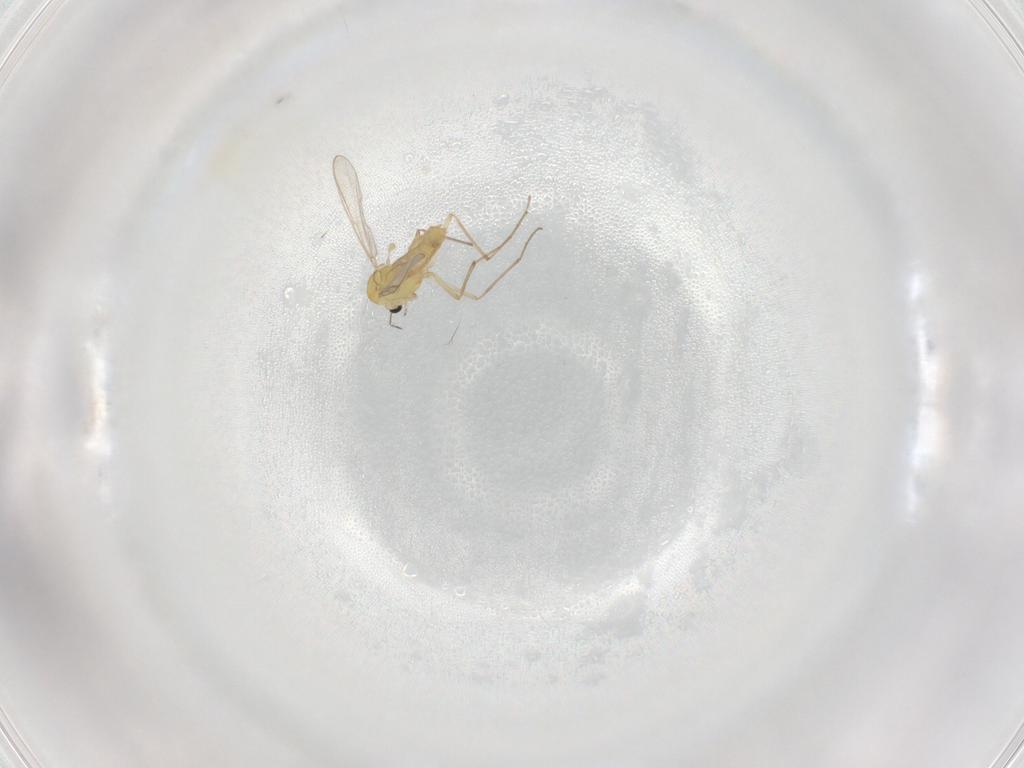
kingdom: Animalia
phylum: Arthropoda
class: Insecta
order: Diptera
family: Chironomidae
